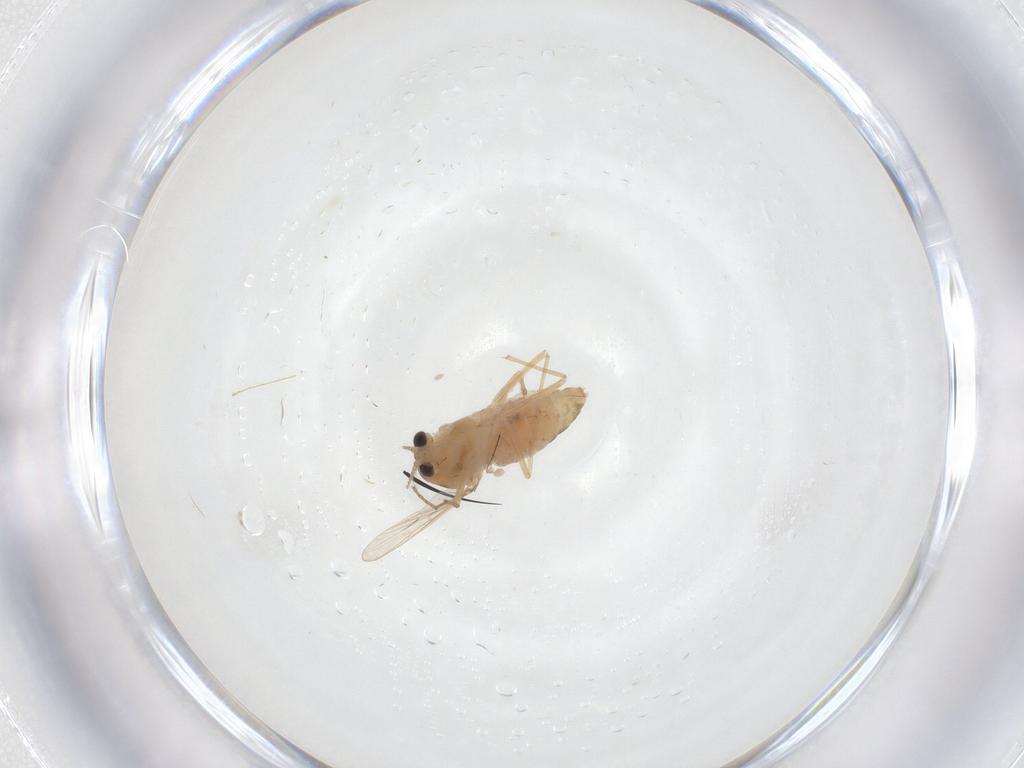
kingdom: Animalia
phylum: Arthropoda
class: Insecta
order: Diptera
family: Chironomidae
